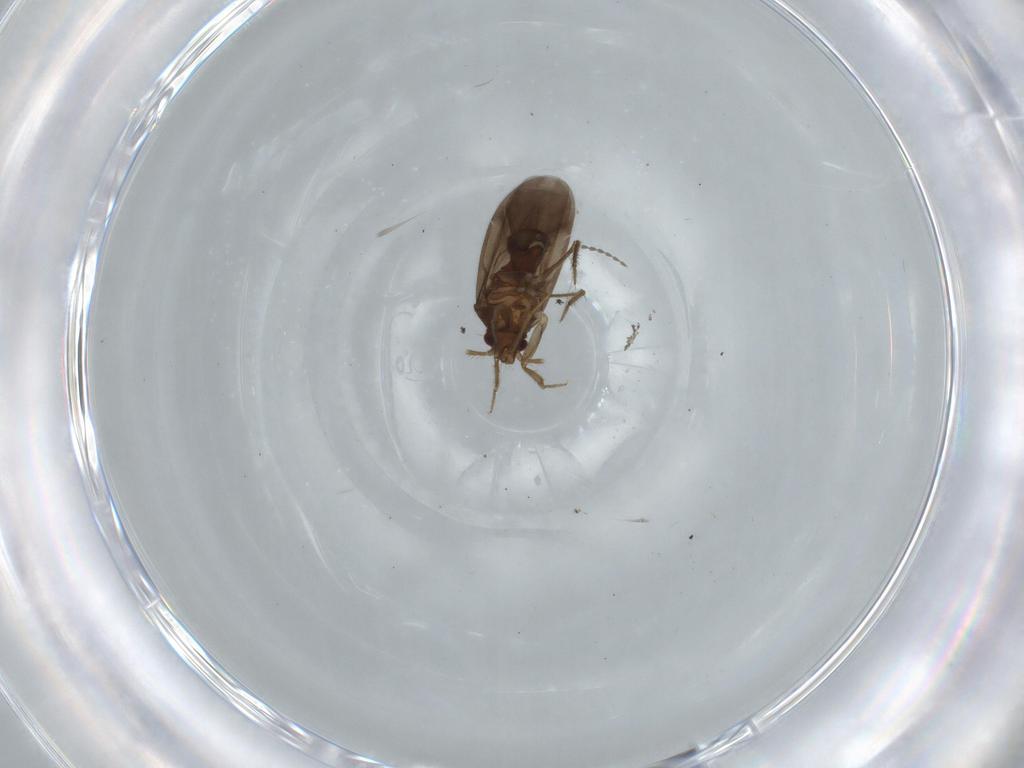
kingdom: Animalia
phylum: Arthropoda
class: Insecta
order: Hemiptera
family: Ceratocombidae
